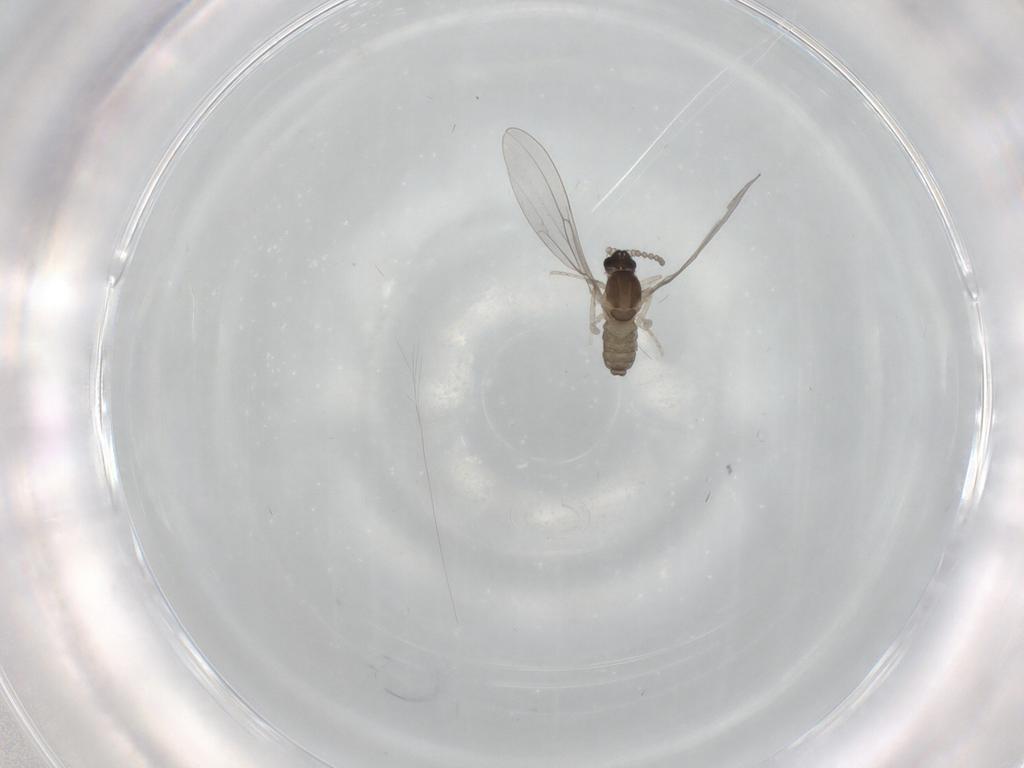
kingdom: Animalia
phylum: Arthropoda
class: Insecta
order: Diptera
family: Cecidomyiidae
